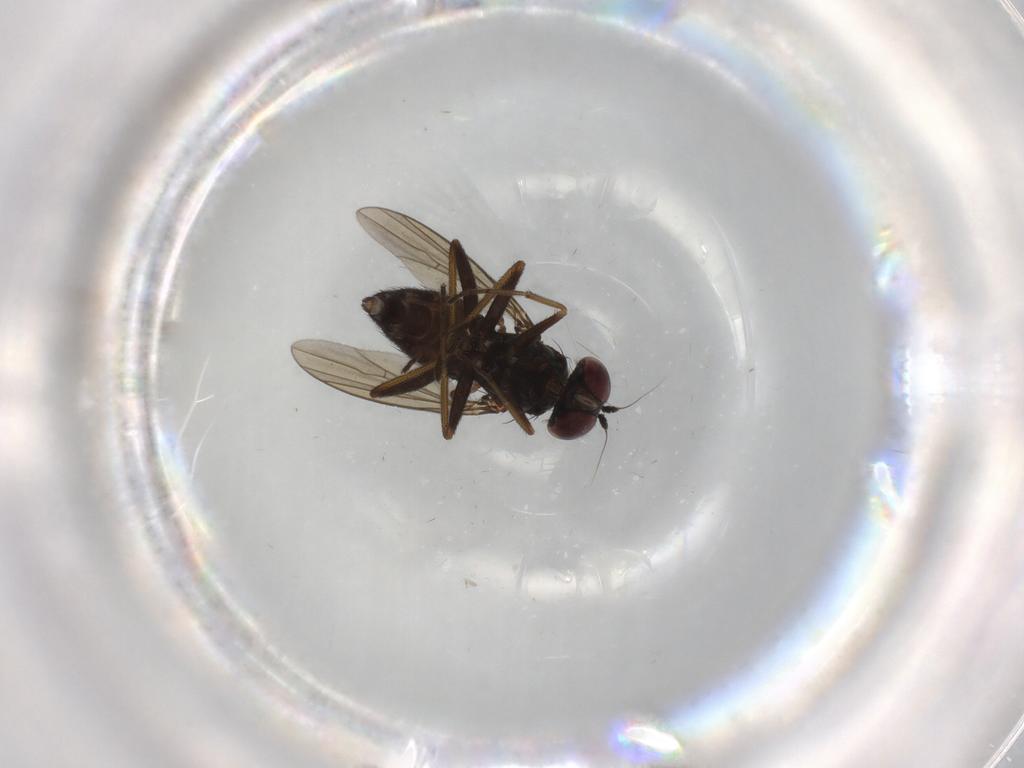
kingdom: Animalia
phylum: Arthropoda
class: Insecta
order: Diptera
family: Dolichopodidae
